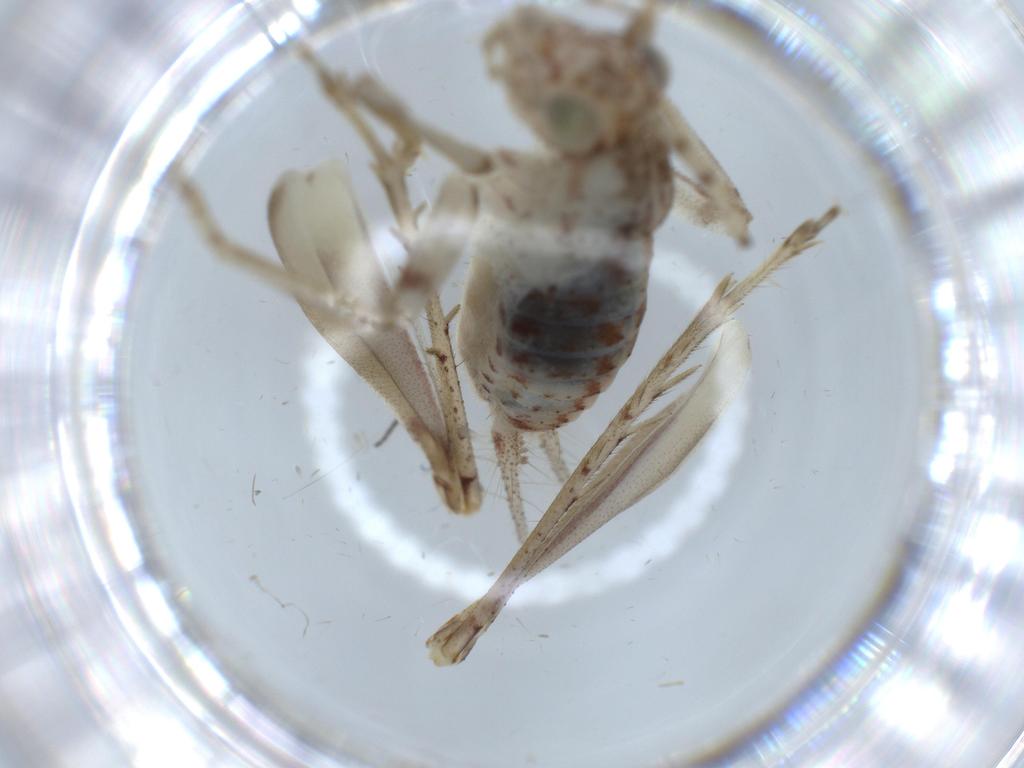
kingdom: Animalia
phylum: Arthropoda
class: Insecta
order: Orthoptera
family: Trigonidiidae
